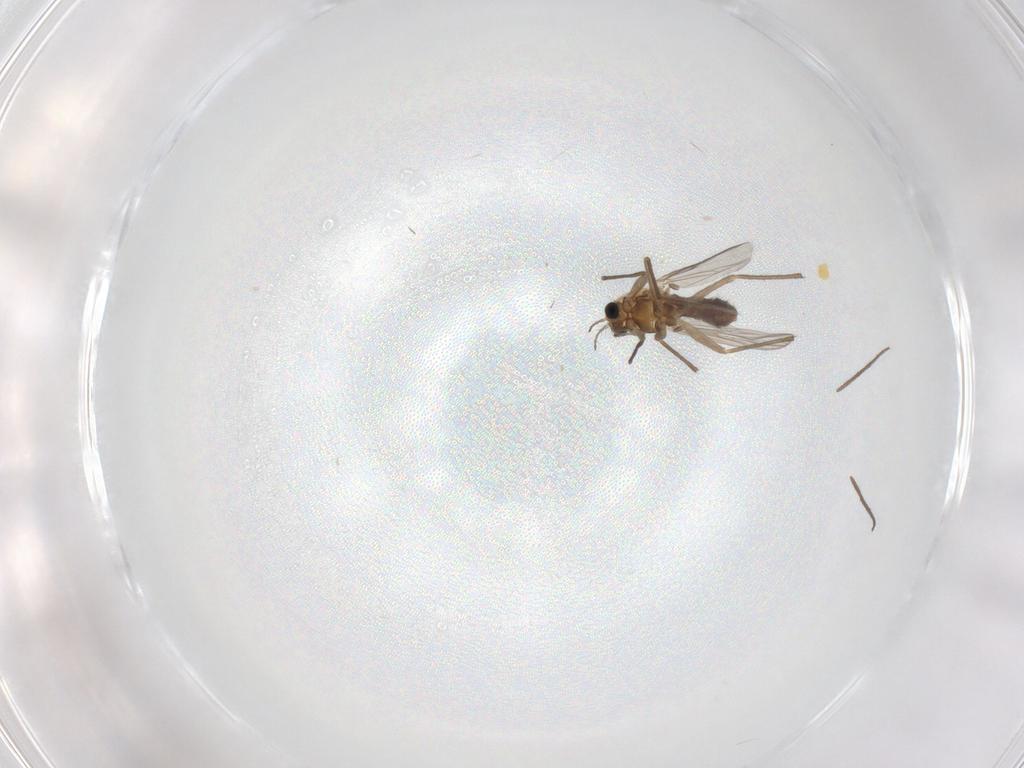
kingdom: Animalia
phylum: Arthropoda
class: Insecta
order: Diptera
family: Chironomidae
